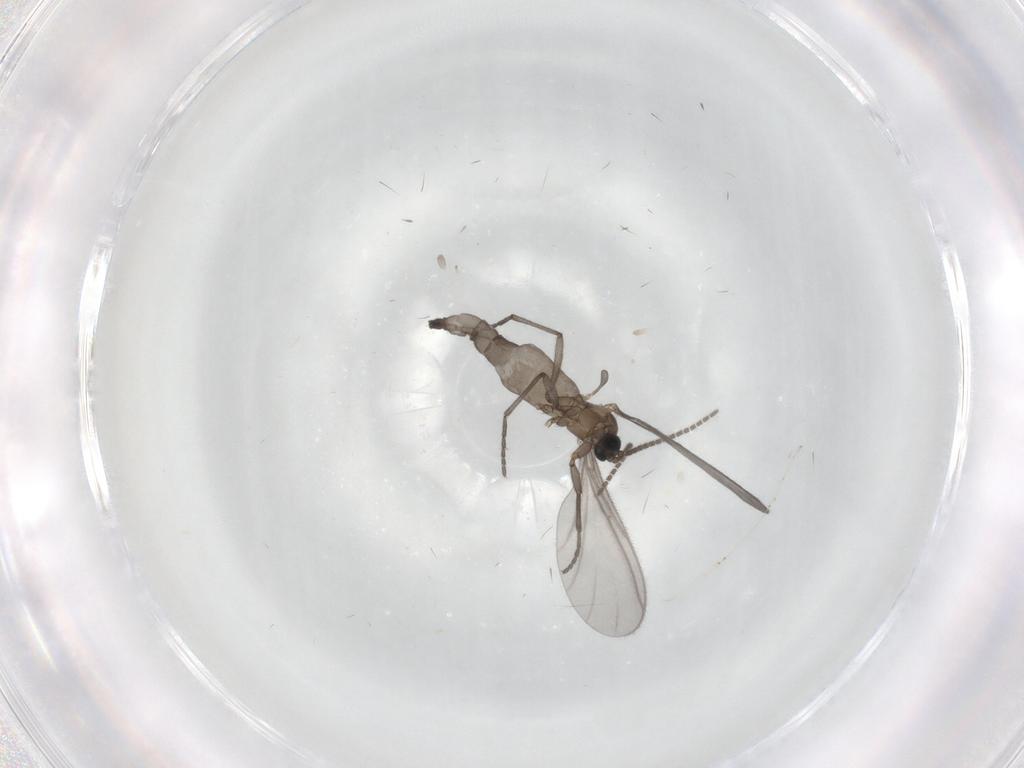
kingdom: Animalia
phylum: Arthropoda
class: Insecta
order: Diptera
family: Sciaridae
